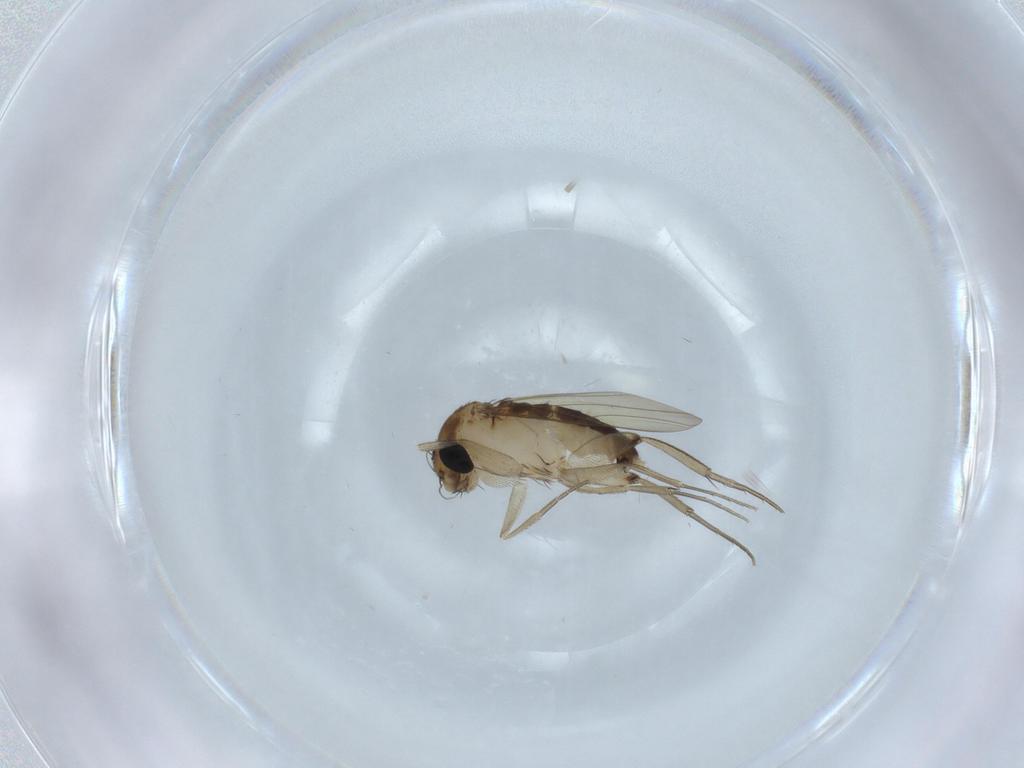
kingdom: Animalia
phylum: Arthropoda
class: Insecta
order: Diptera
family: Phoridae
